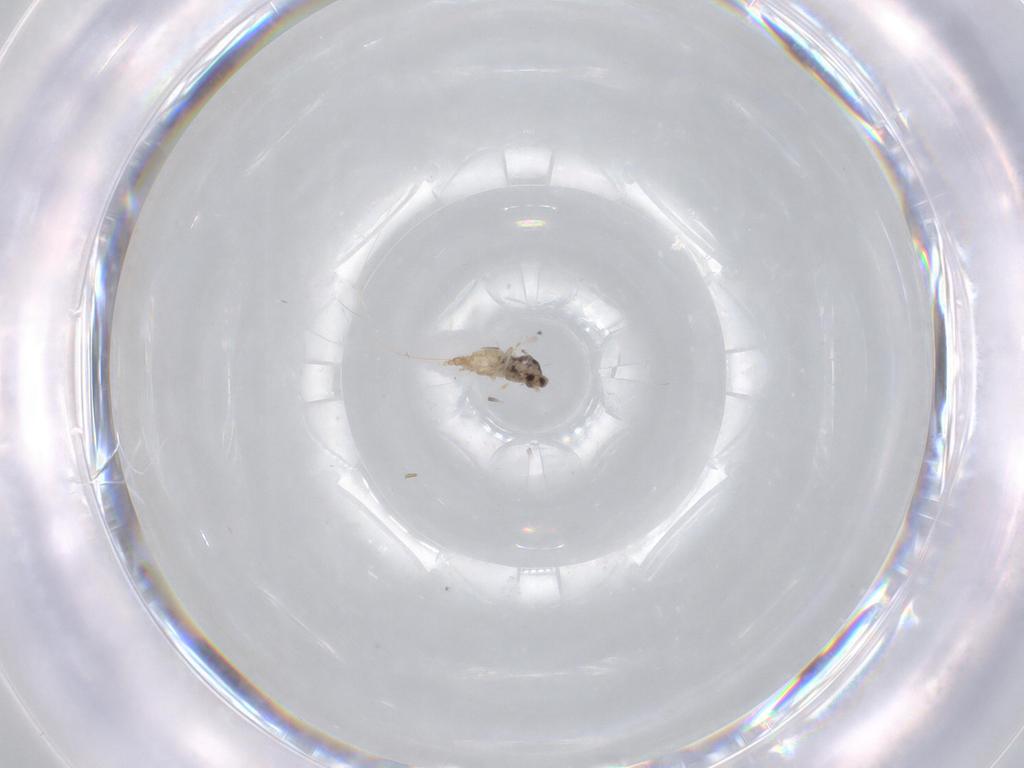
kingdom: Animalia
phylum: Arthropoda
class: Insecta
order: Diptera
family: Cecidomyiidae
